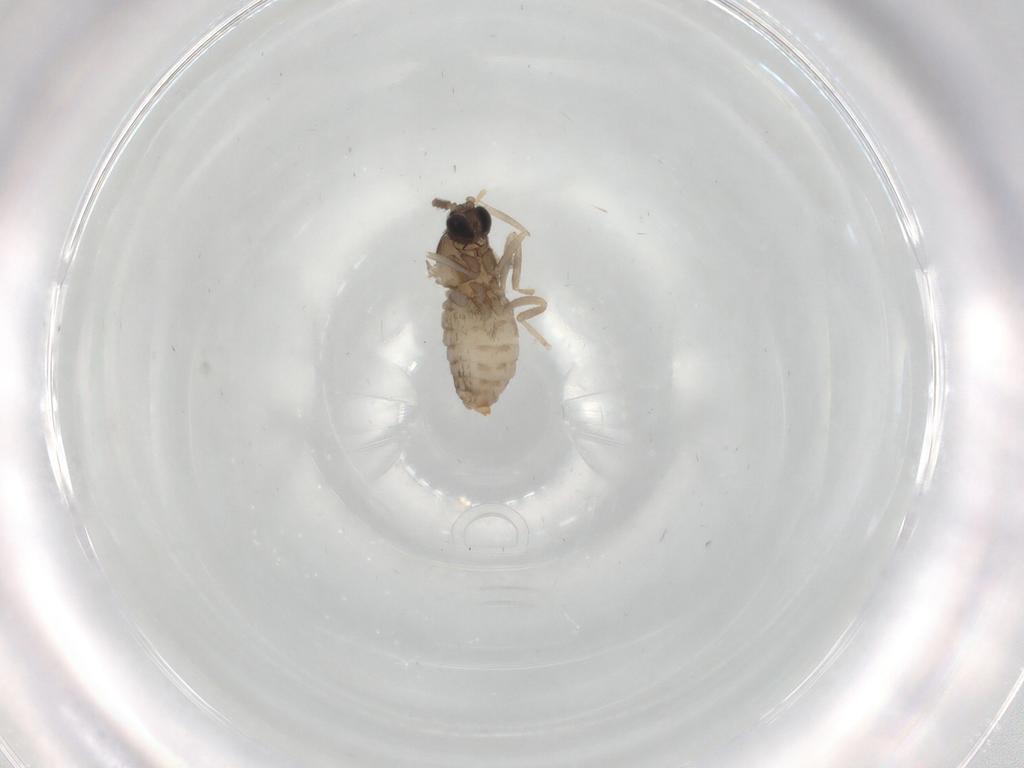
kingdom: Animalia
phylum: Arthropoda
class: Insecta
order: Diptera
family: Cecidomyiidae
